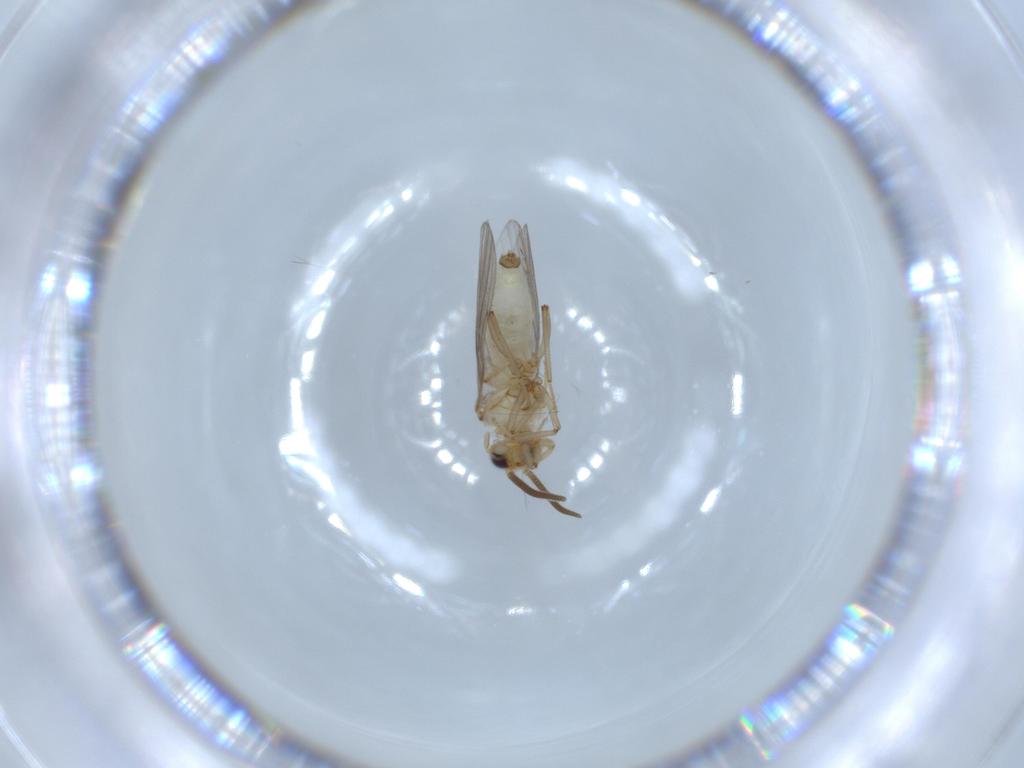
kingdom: Animalia
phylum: Arthropoda
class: Insecta
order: Neuroptera
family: Coniopterygidae
